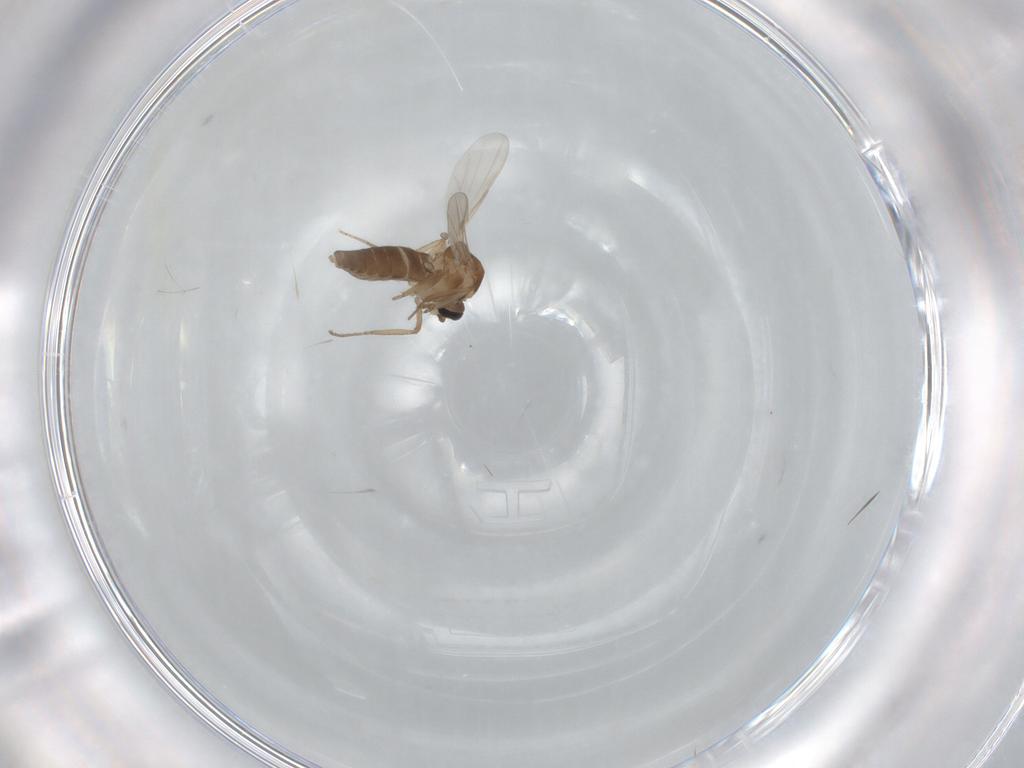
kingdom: Animalia
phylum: Arthropoda
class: Insecta
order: Diptera
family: Ceratopogonidae
